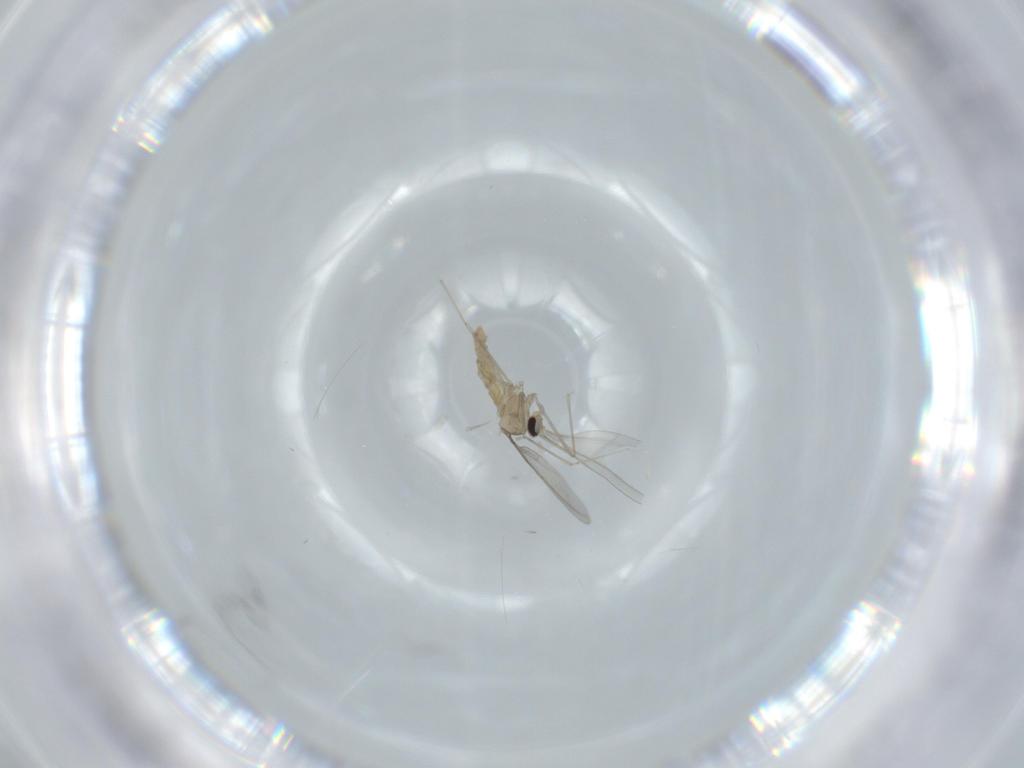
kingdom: Animalia
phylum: Arthropoda
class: Insecta
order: Diptera
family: Cecidomyiidae
